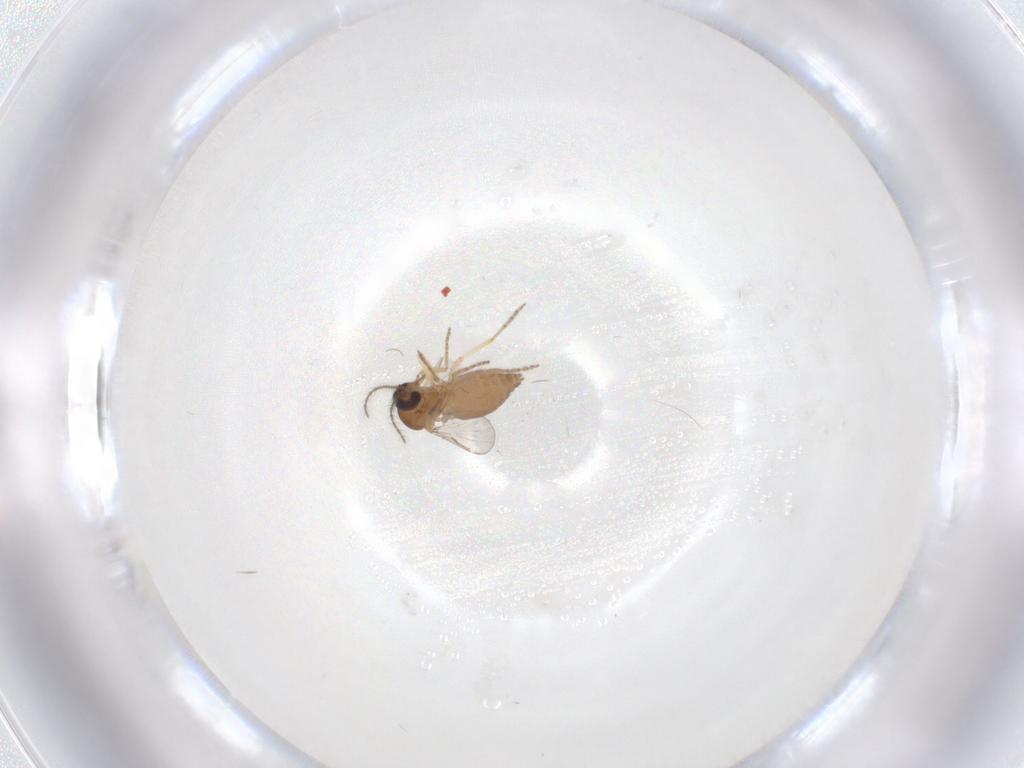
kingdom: Animalia
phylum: Arthropoda
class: Insecta
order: Diptera
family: Ceratopogonidae
